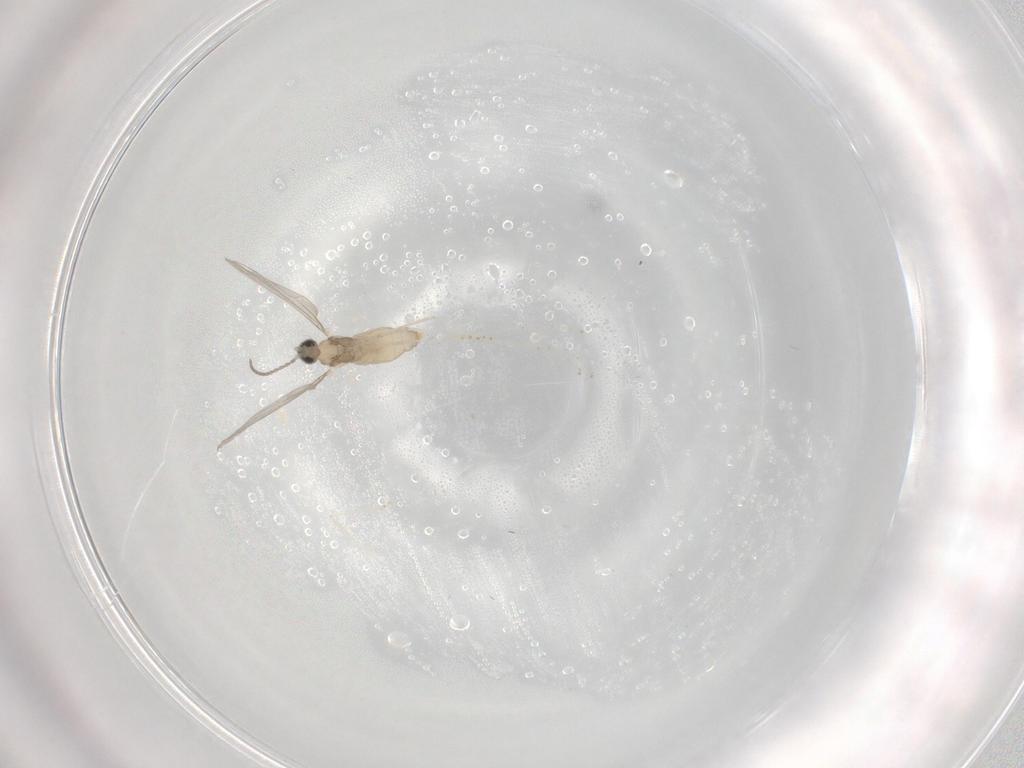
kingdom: Animalia
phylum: Arthropoda
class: Insecta
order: Diptera
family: Cecidomyiidae
